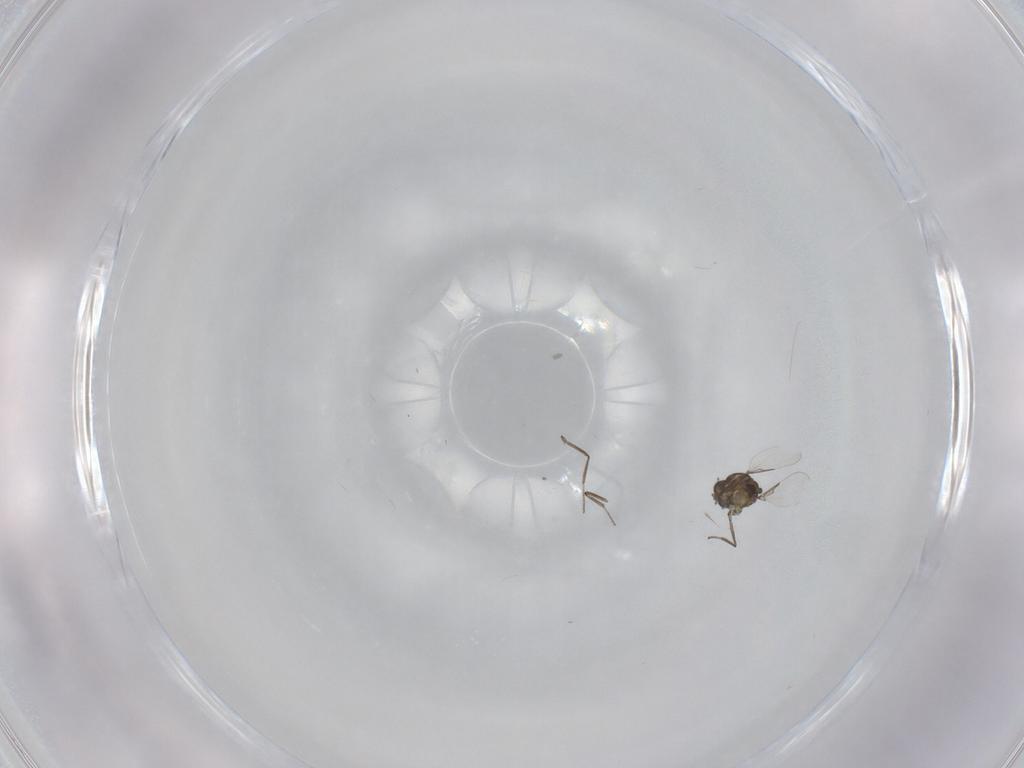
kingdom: Animalia
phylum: Arthropoda
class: Insecta
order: Diptera
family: Ceratopogonidae
